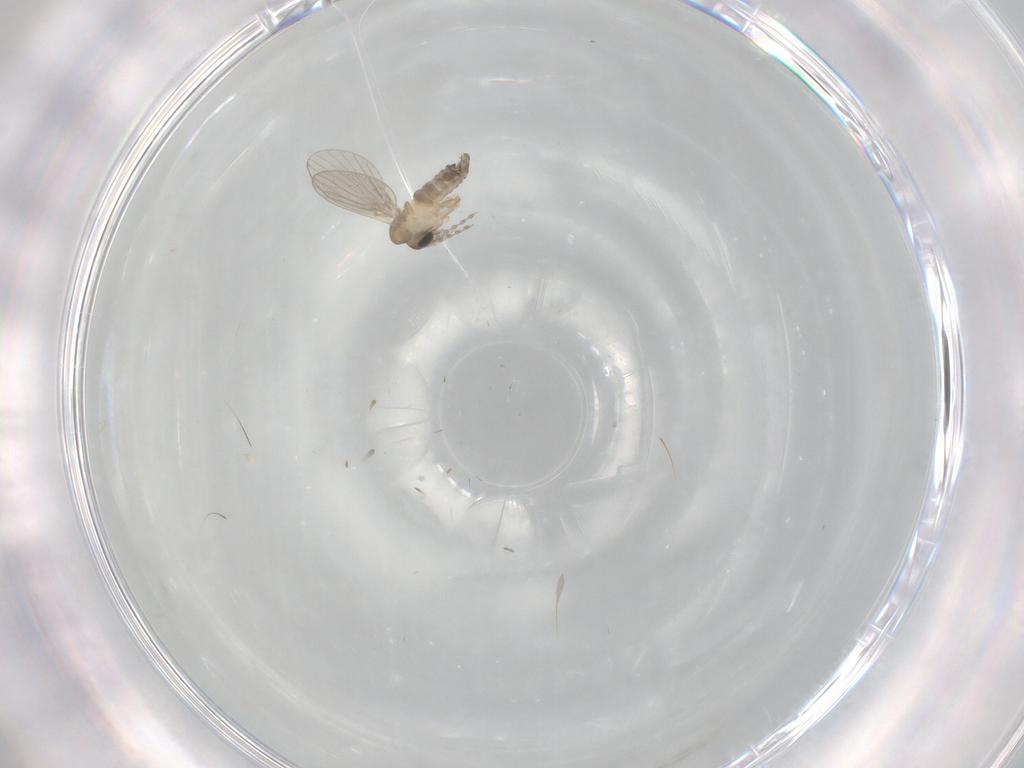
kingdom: Animalia
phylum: Arthropoda
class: Insecta
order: Diptera
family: Cecidomyiidae
